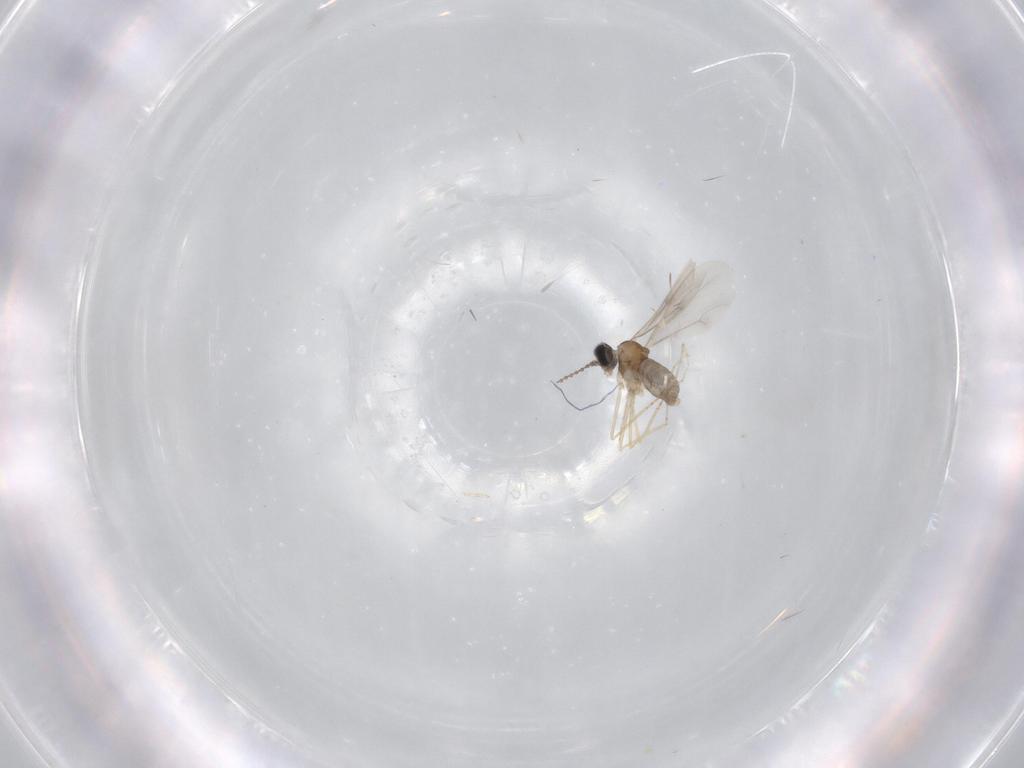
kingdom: Animalia
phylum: Arthropoda
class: Insecta
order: Diptera
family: Cecidomyiidae
